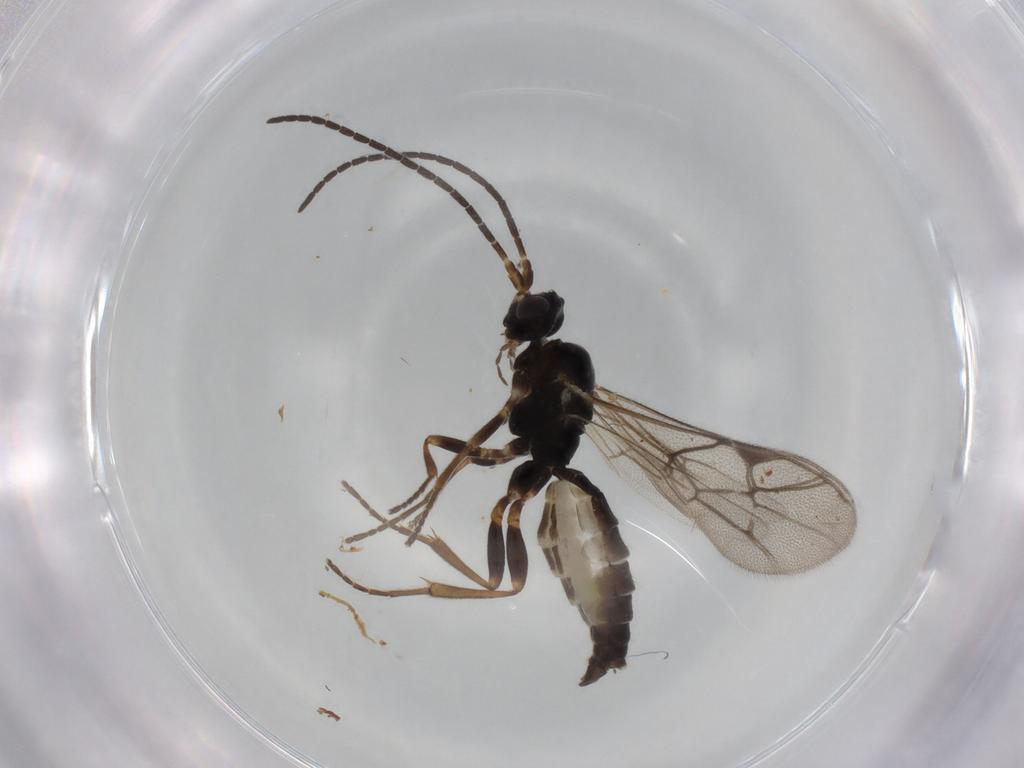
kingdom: Animalia
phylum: Arthropoda
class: Insecta
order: Hymenoptera
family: Ichneumonidae
